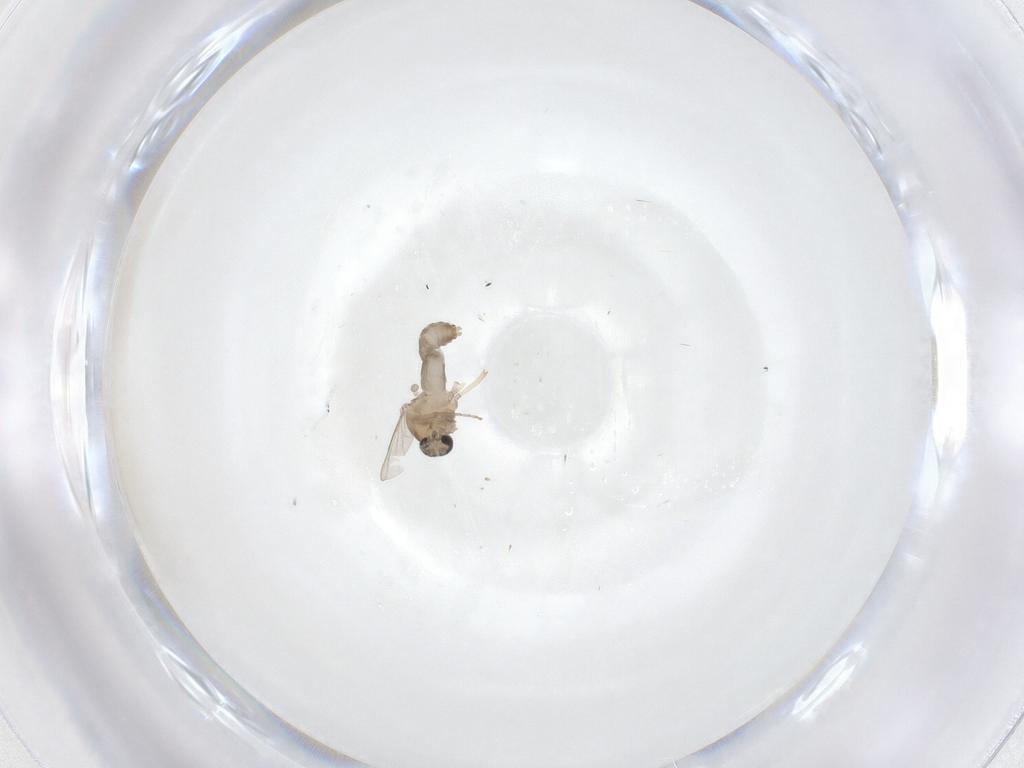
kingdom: Animalia
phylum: Arthropoda
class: Insecta
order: Diptera
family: Ceratopogonidae
